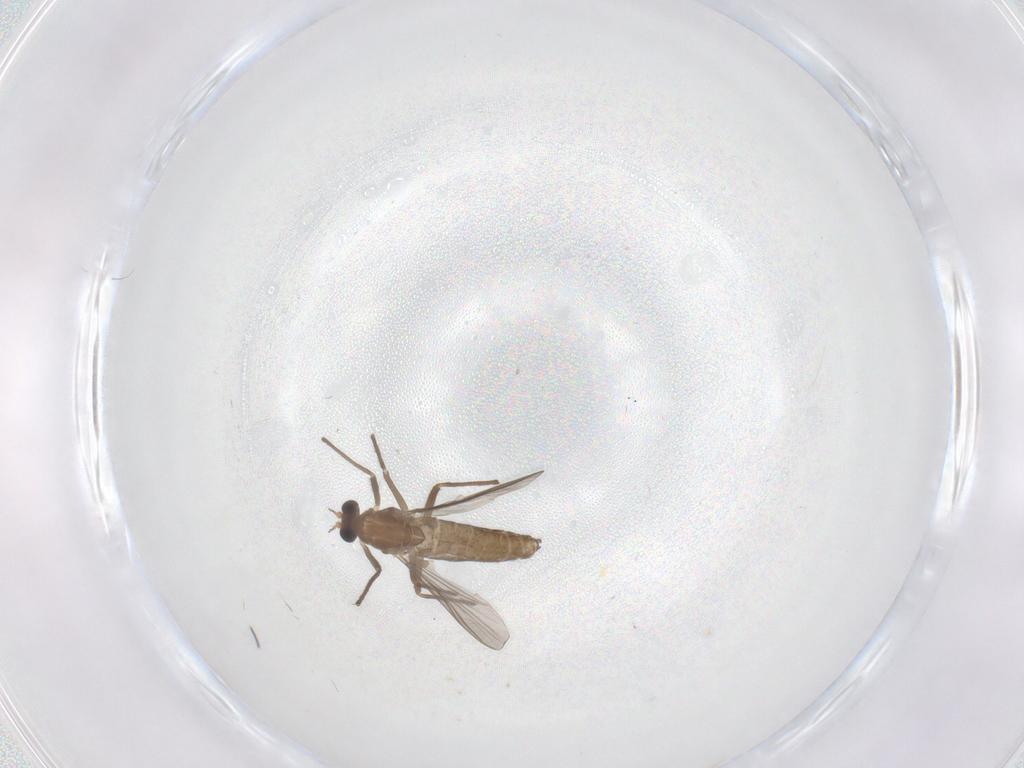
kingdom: Animalia
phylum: Arthropoda
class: Insecta
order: Diptera
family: Chironomidae
